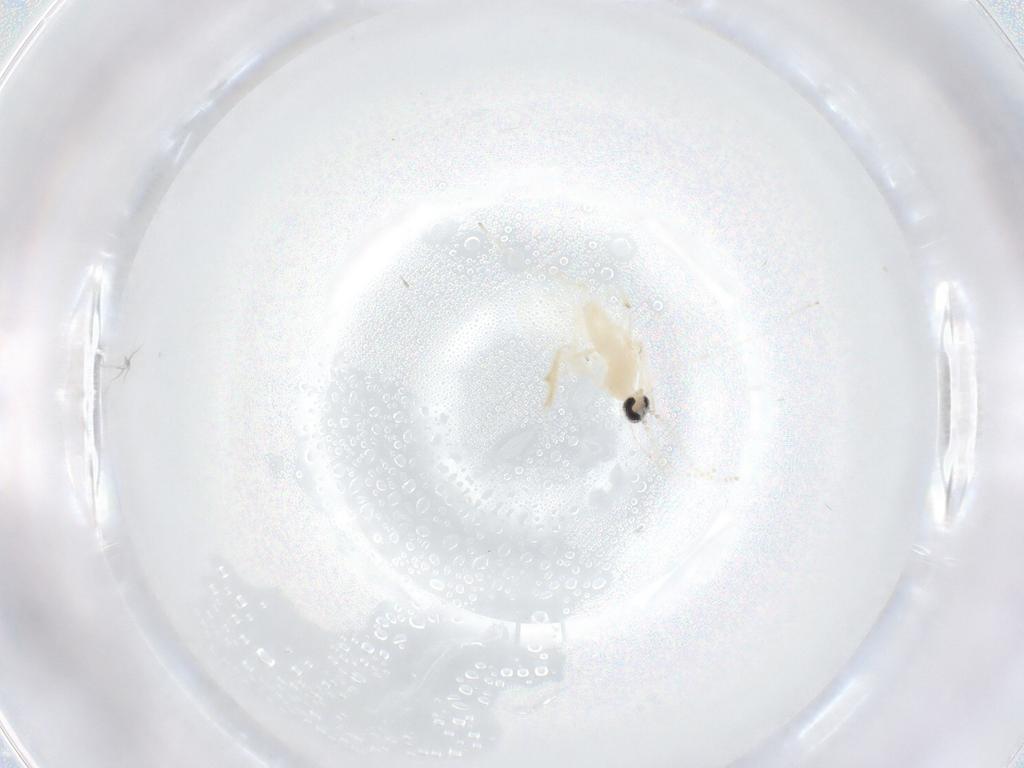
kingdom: Animalia
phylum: Arthropoda
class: Insecta
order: Diptera
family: Cecidomyiidae
